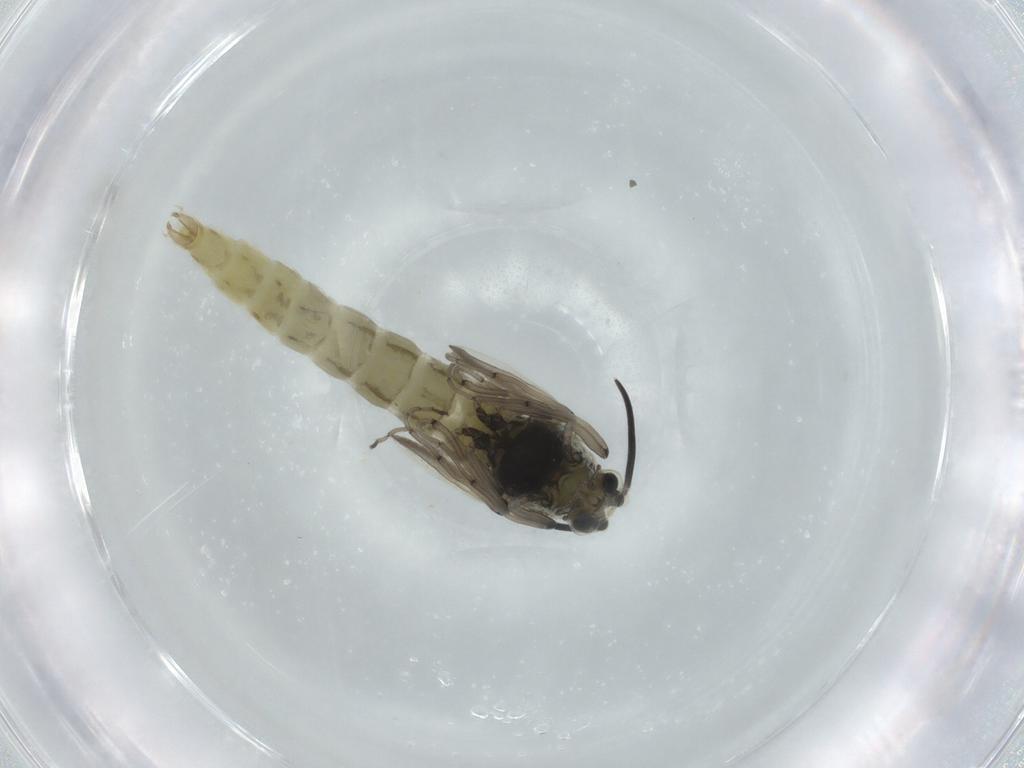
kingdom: Animalia
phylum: Arthropoda
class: Insecta
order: Diptera
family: Chironomidae
